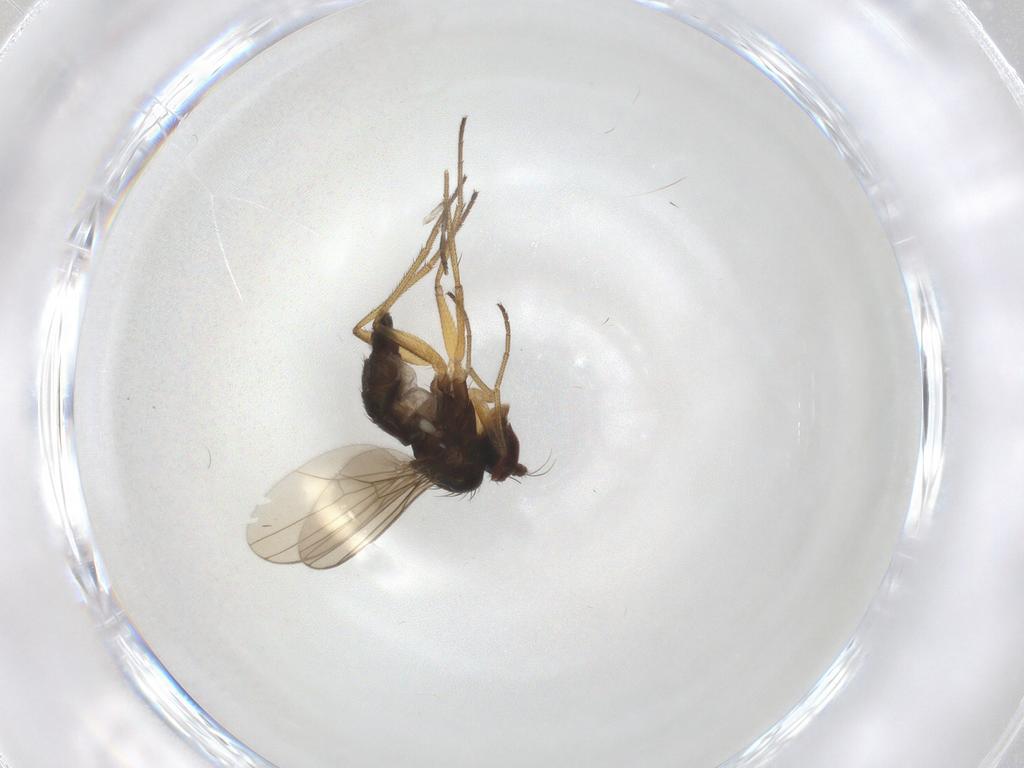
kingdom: Animalia
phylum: Arthropoda
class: Insecta
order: Diptera
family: Dolichopodidae
